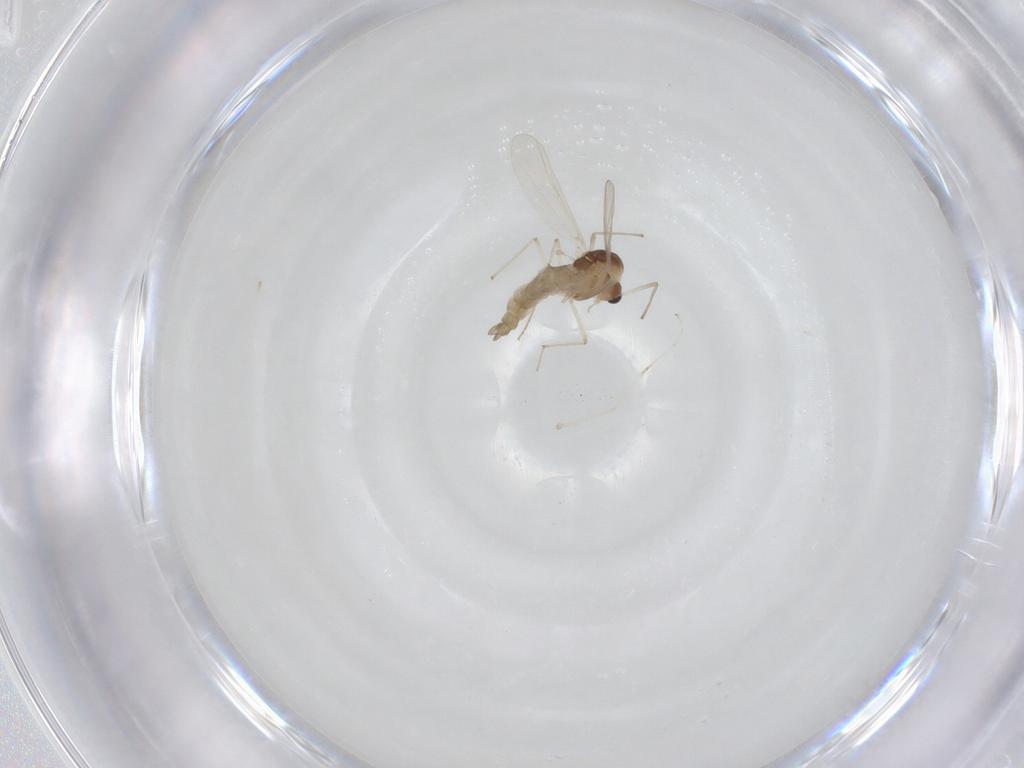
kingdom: Animalia
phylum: Arthropoda
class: Insecta
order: Diptera
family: Chironomidae
